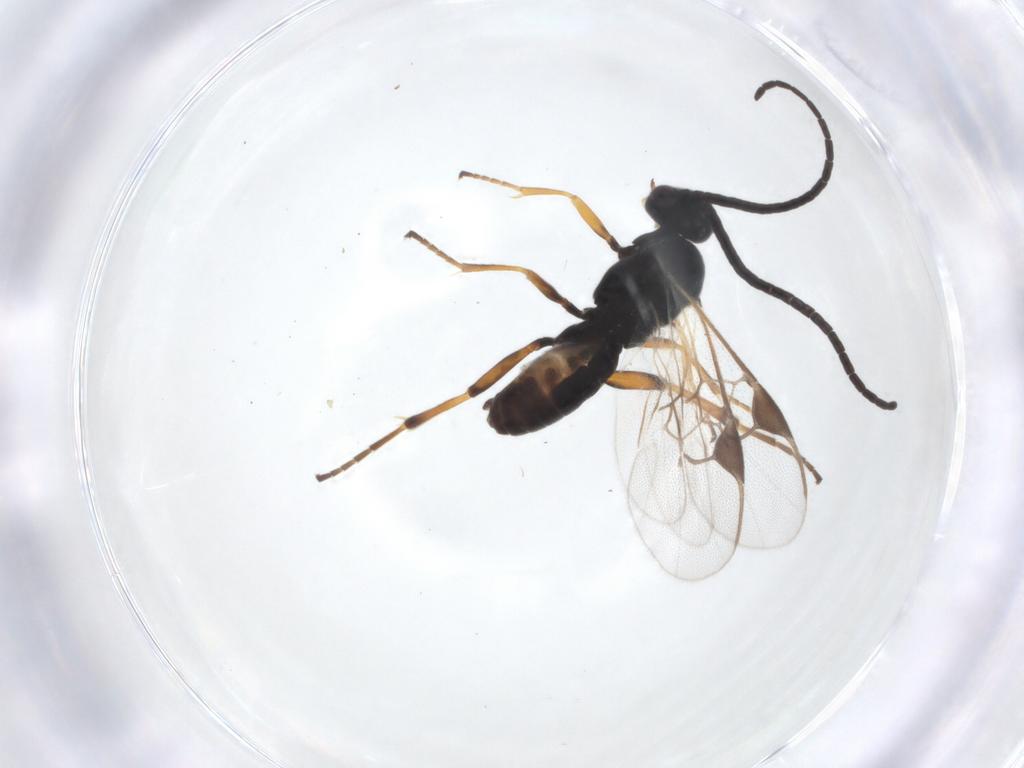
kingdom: Animalia
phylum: Arthropoda
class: Insecta
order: Hymenoptera
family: Braconidae
